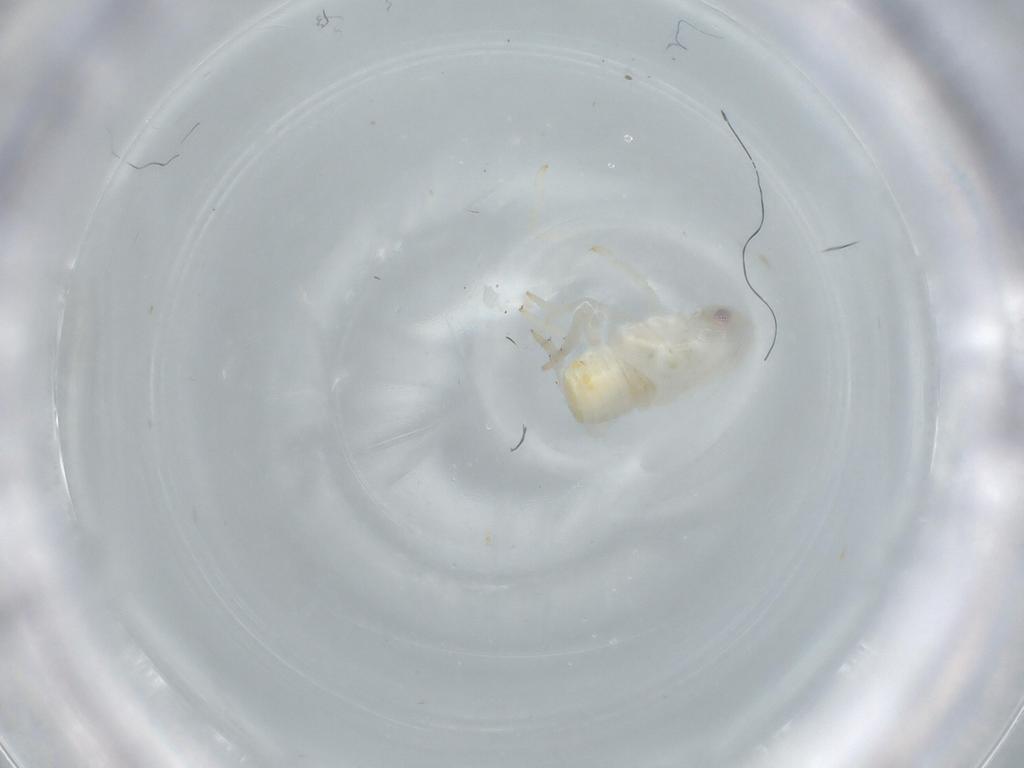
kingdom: Animalia
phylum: Arthropoda
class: Insecta
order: Hemiptera
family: Flatidae
